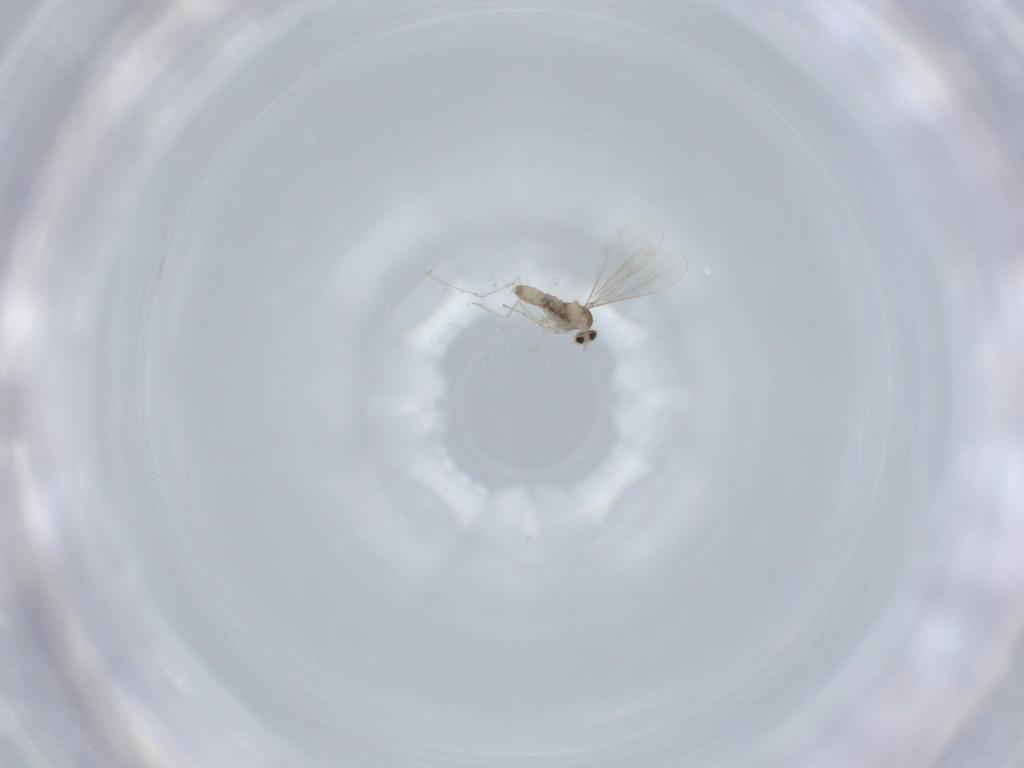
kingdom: Animalia
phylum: Arthropoda
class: Insecta
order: Diptera
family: Cecidomyiidae
